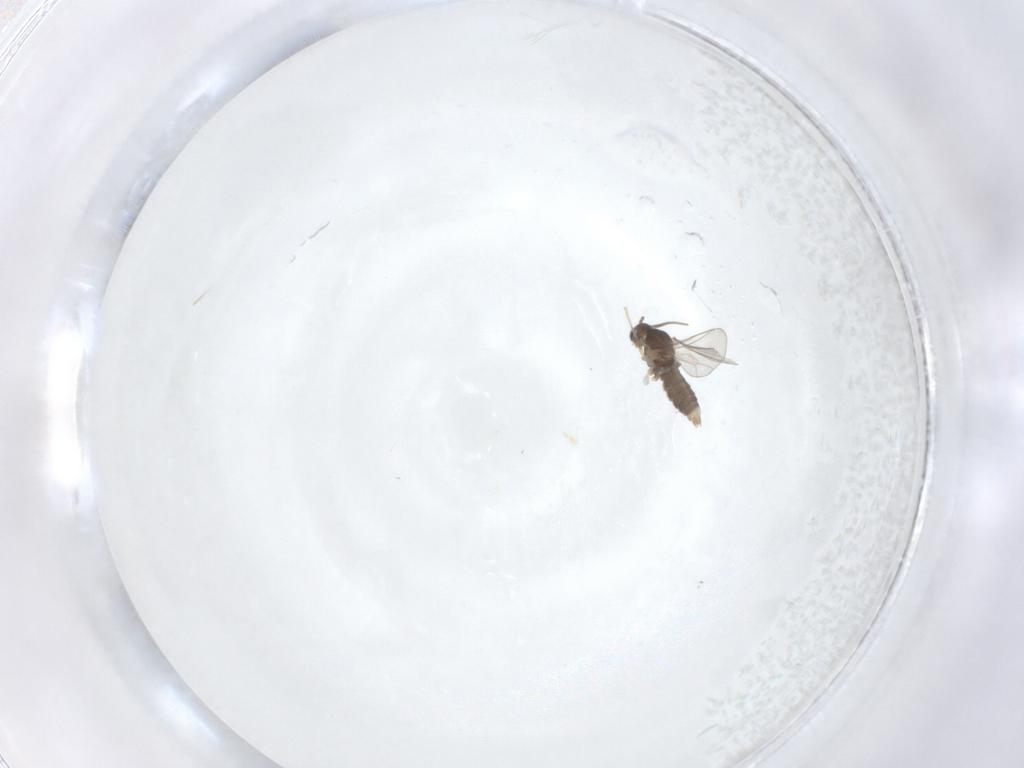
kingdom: Animalia
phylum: Arthropoda
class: Insecta
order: Diptera
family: Cecidomyiidae
